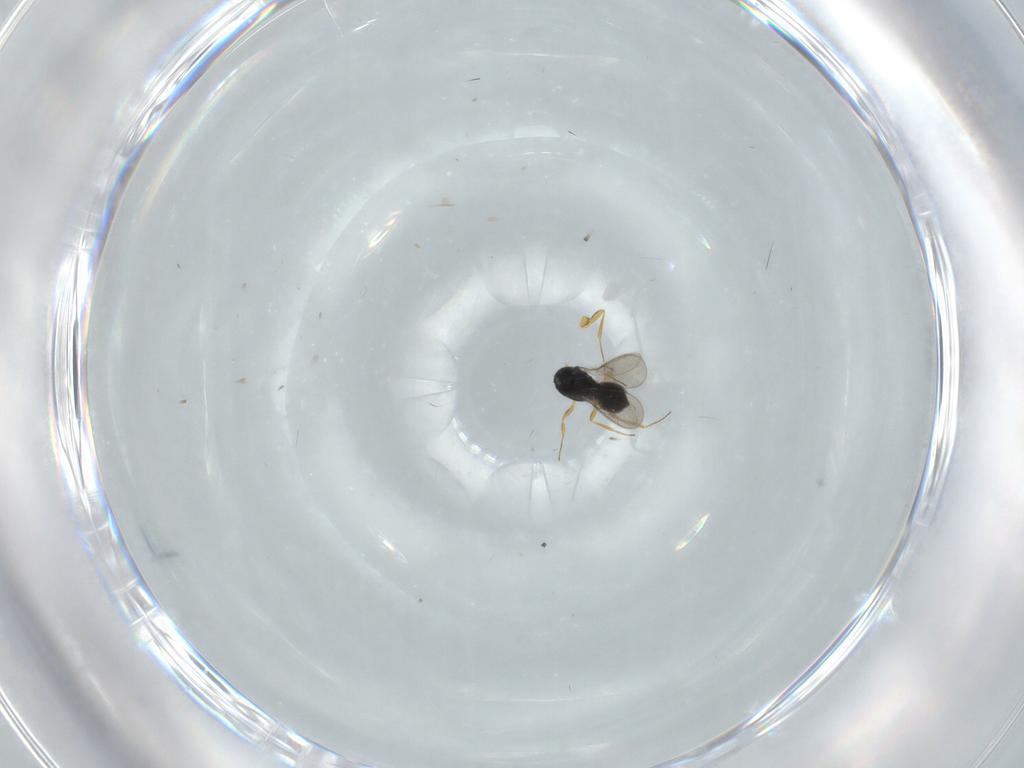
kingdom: Animalia
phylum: Arthropoda
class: Insecta
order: Hymenoptera
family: Scelionidae
